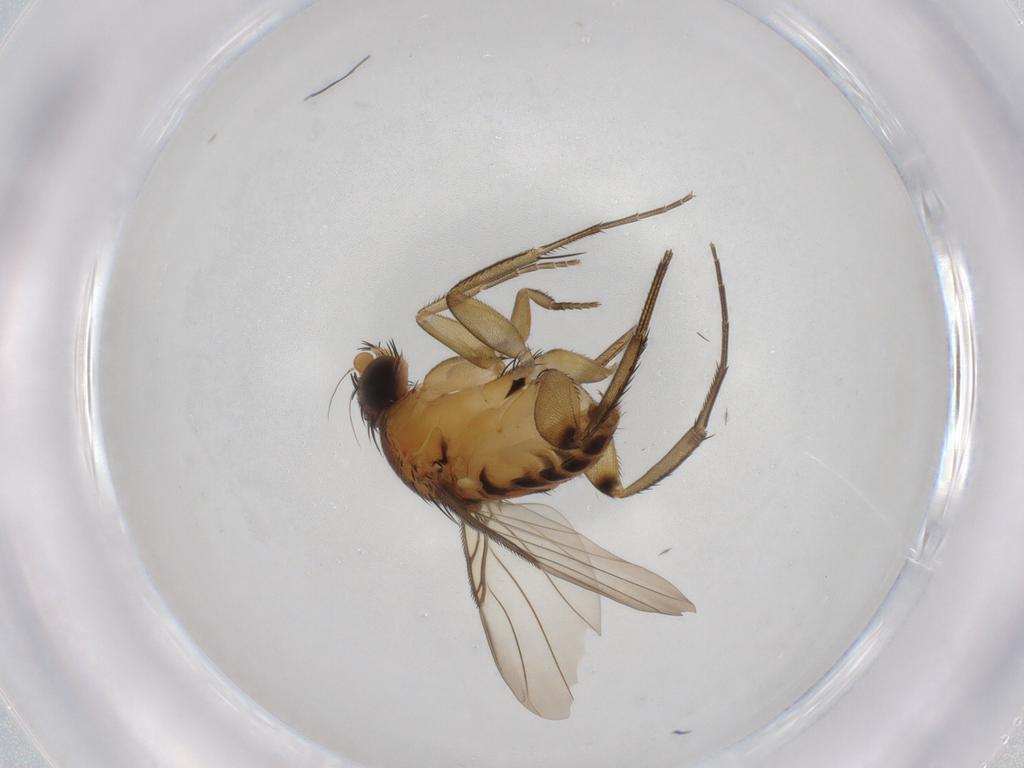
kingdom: Animalia
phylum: Arthropoda
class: Insecta
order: Diptera
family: Phoridae
